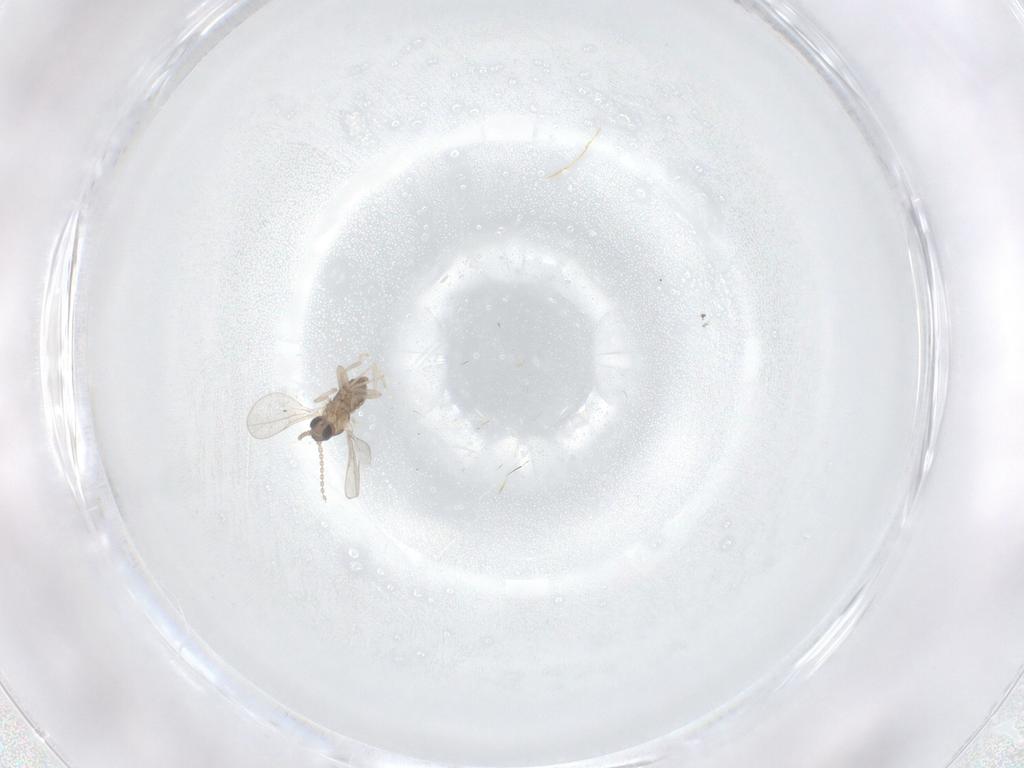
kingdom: Animalia
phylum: Arthropoda
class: Insecta
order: Diptera
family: Cecidomyiidae
